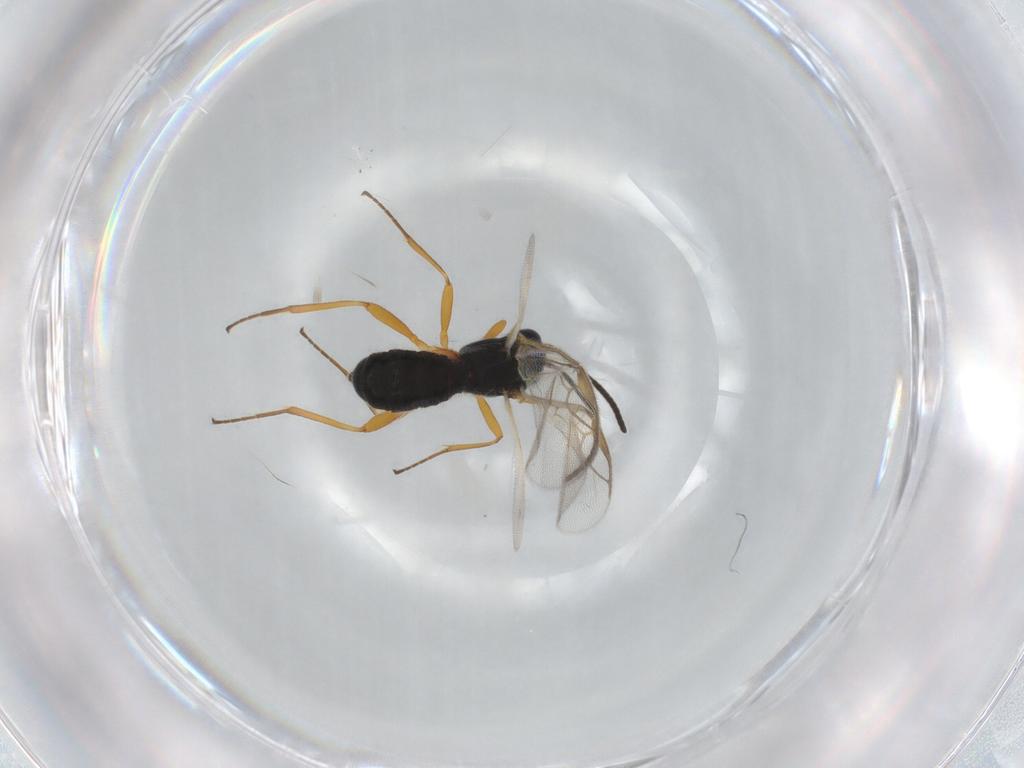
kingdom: Animalia
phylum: Arthropoda
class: Insecta
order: Hymenoptera
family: Braconidae
